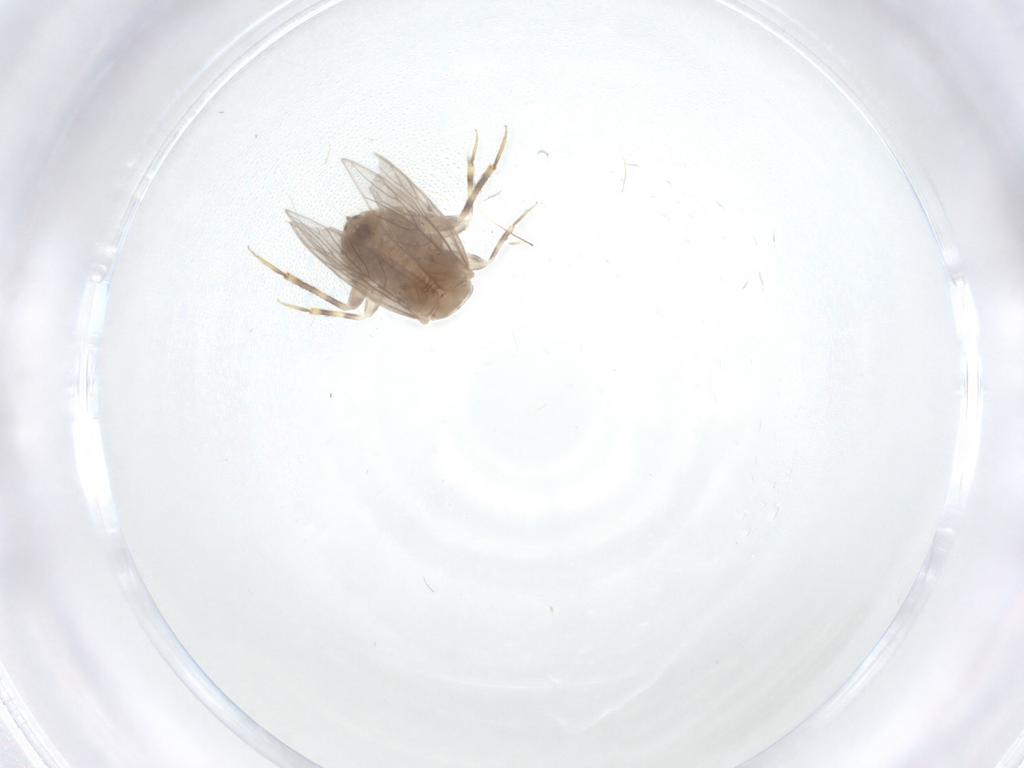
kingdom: Animalia
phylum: Arthropoda
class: Insecta
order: Psocodea
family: Lepidopsocidae
